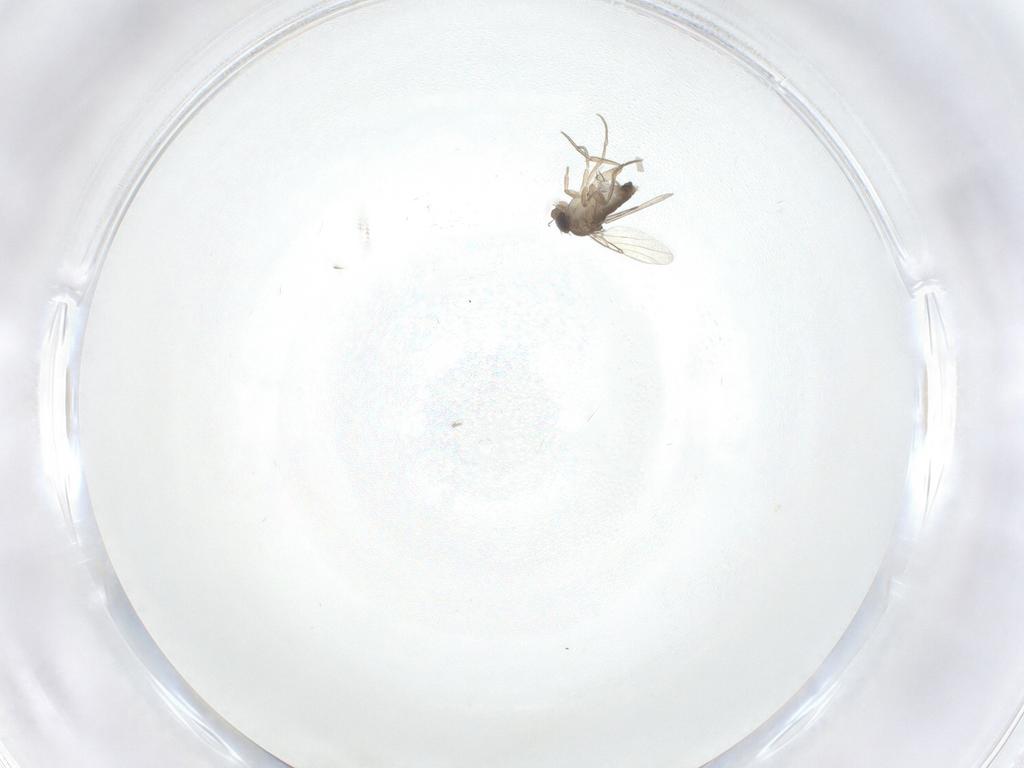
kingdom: Animalia
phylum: Arthropoda
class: Insecta
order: Diptera
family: Phoridae
